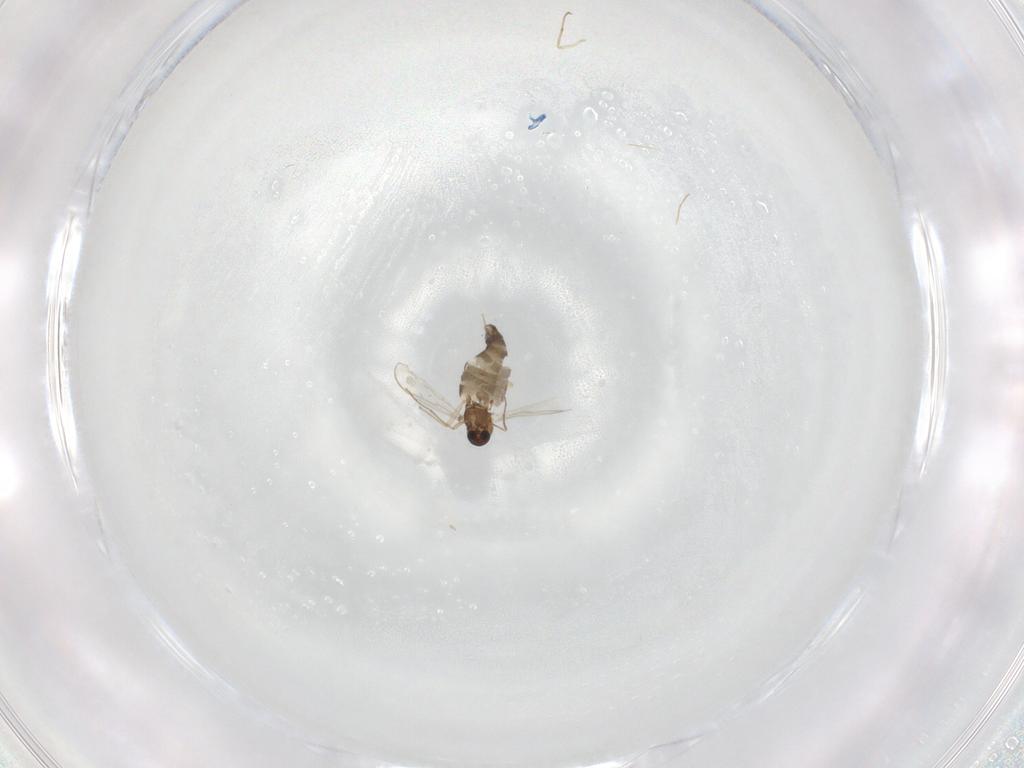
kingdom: Animalia
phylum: Arthropoda
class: Insecta
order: Diptera
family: Chironomidae
